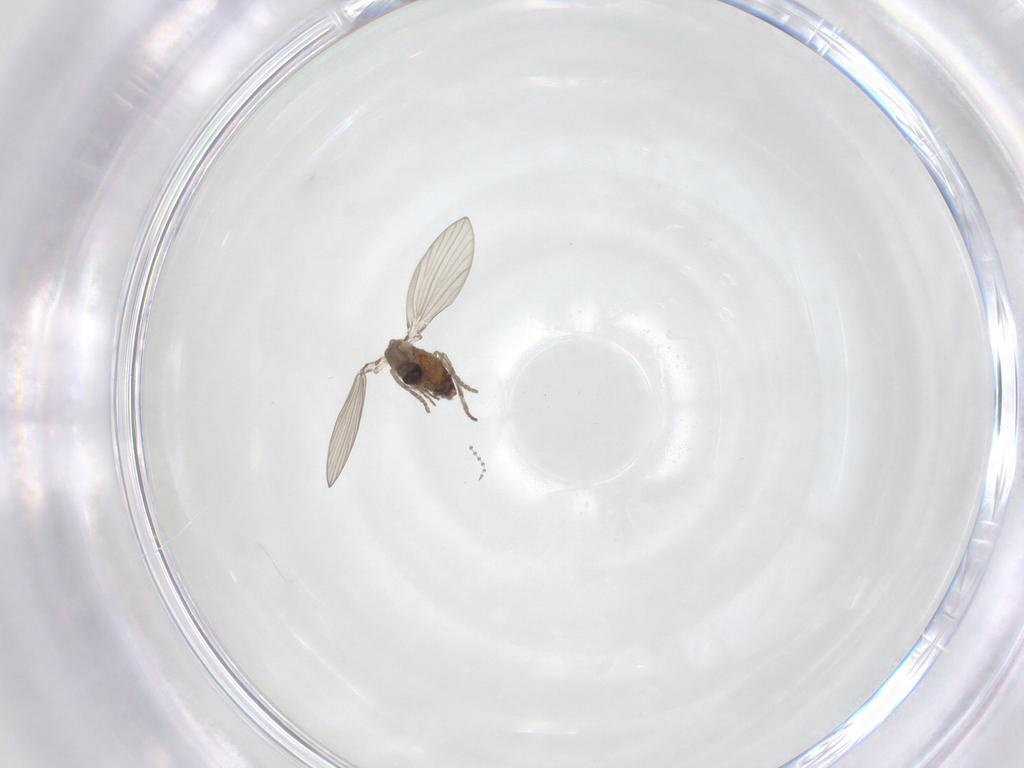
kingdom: Animalia
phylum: Arthropoda
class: Insecta
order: Diptera
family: Psychodidae
